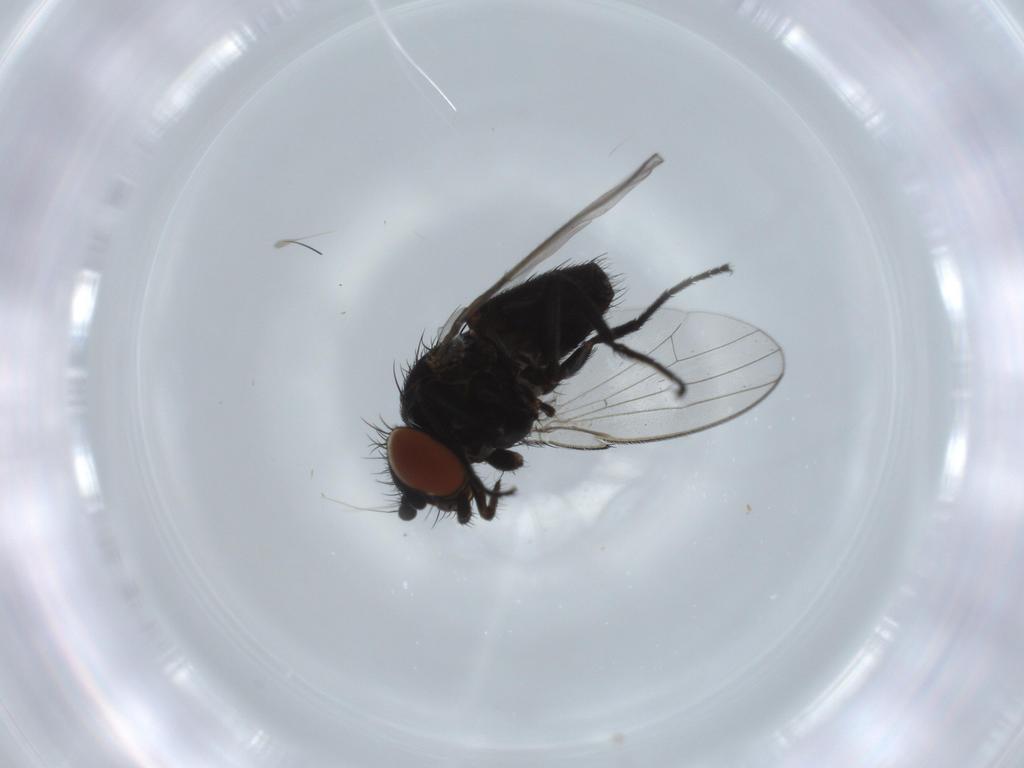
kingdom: Animalia
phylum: Arthropoda
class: Insecta
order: Diptera
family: Milichiidae
